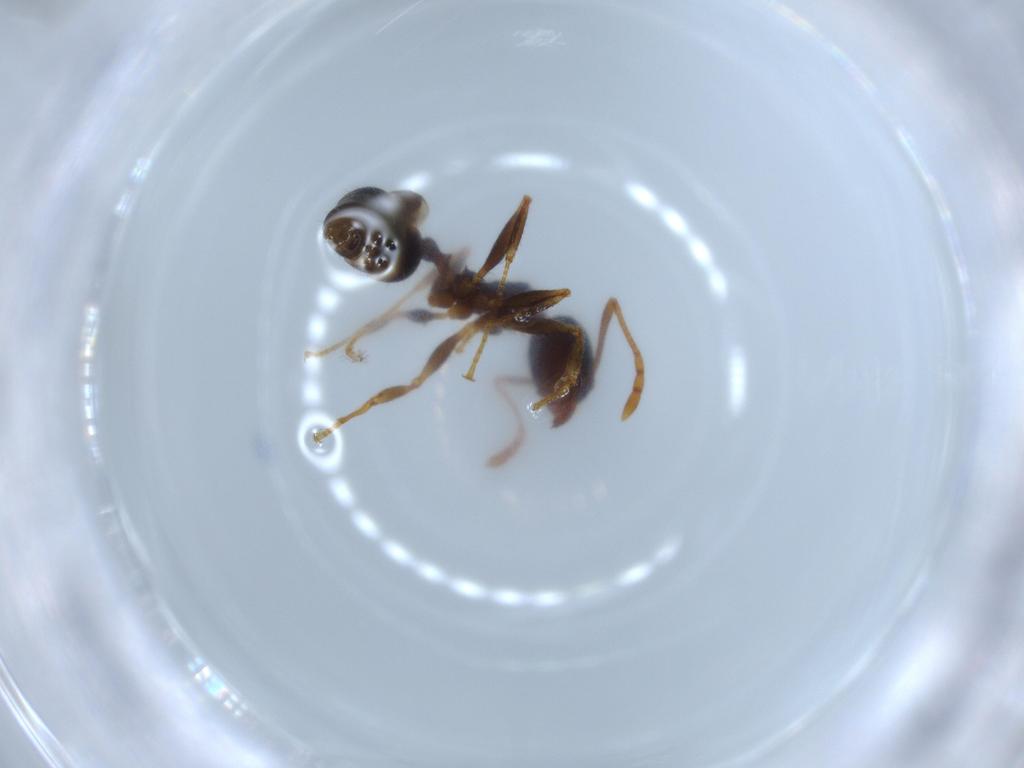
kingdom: Animalia
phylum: Arthropoda
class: Insecta
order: Hymenoptera
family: Formicidae
